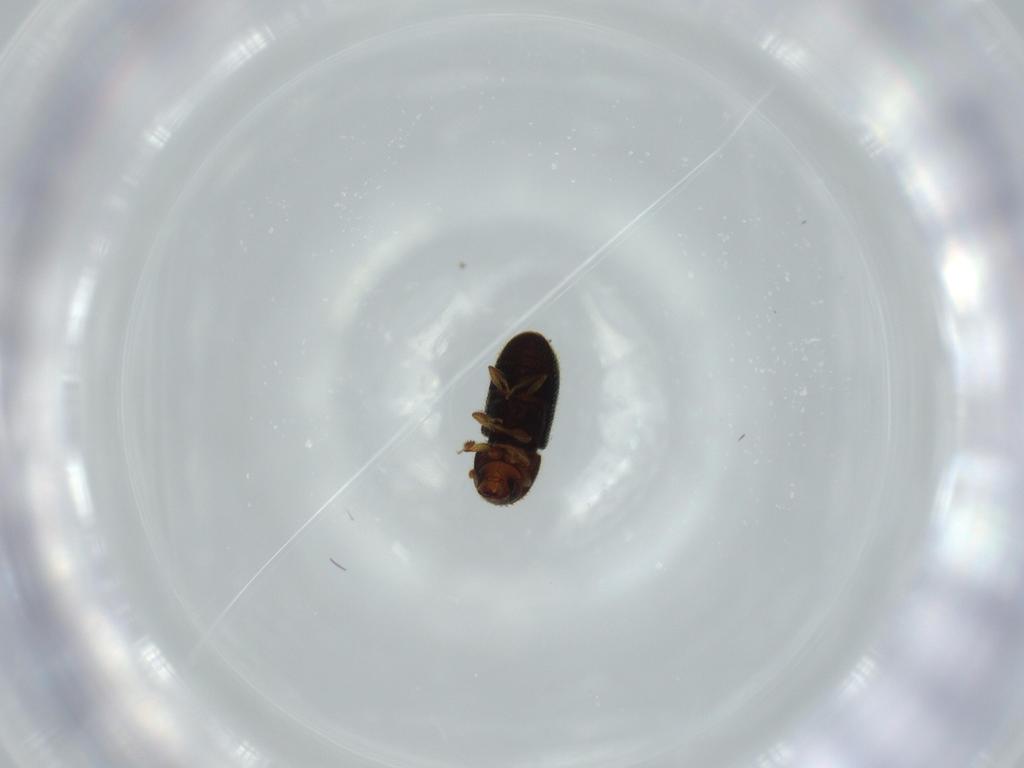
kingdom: Animalia
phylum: Arthropoda
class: Insecta
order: Coleoptera
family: Curculionidae
